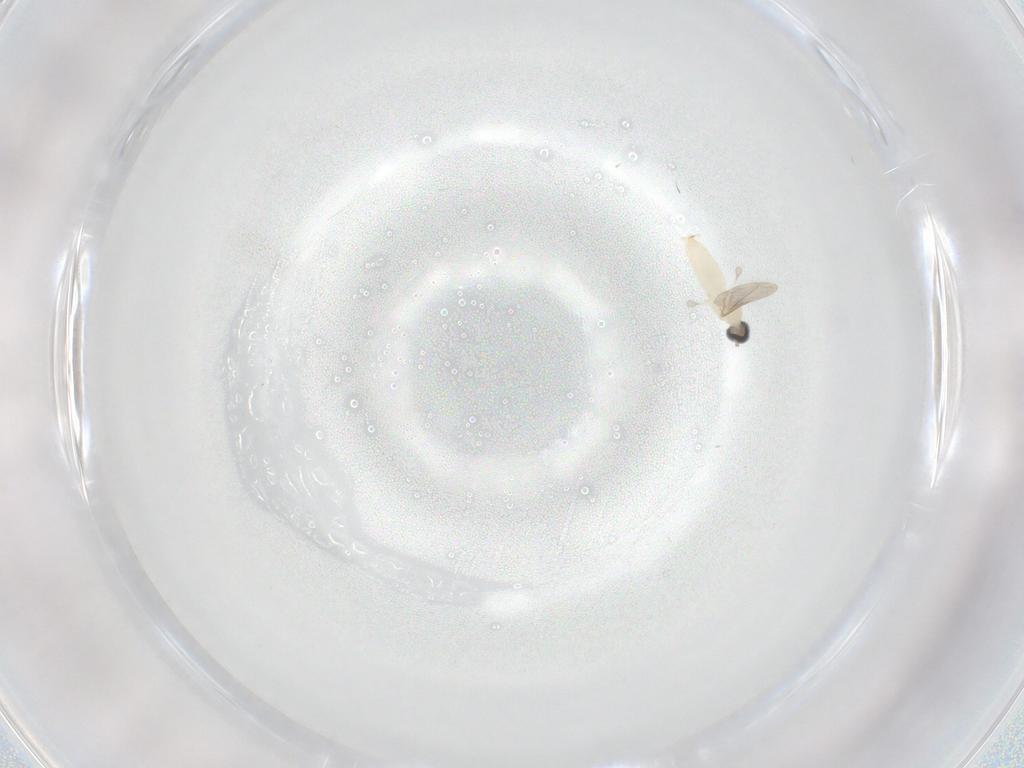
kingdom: Animalia
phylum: Arthropoda
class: Insecta
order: Diptera
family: Cecidomyiidae
